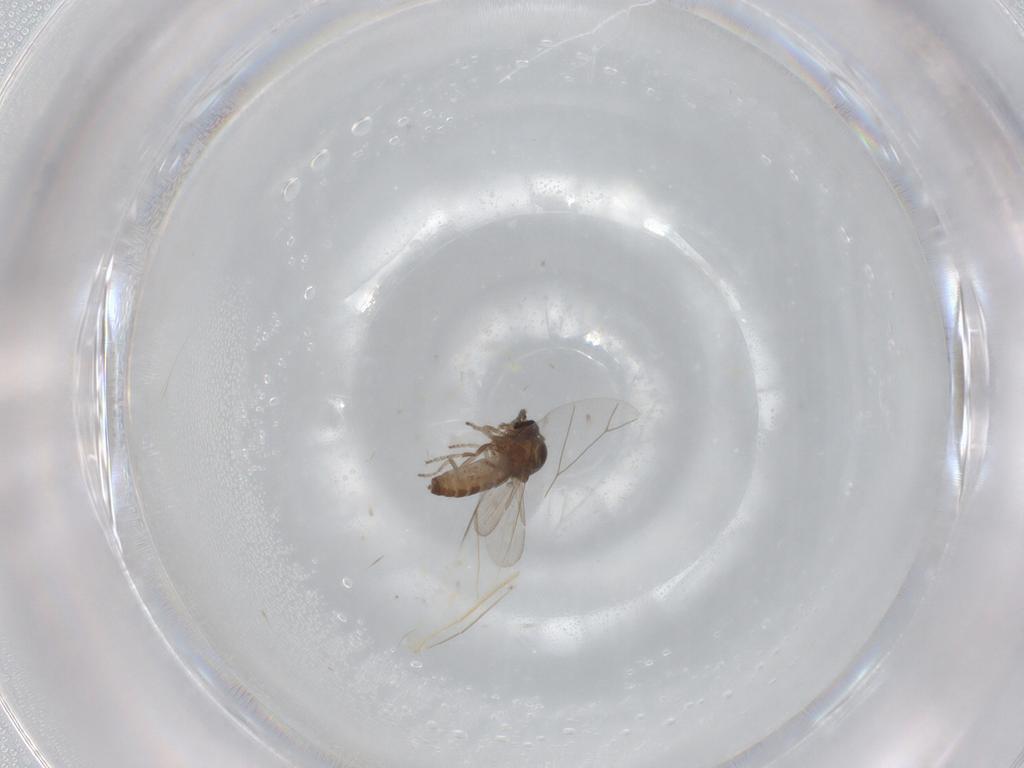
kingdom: Animalia
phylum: Arthropoda
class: Insecta
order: Diptera
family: Ceratopogonidae
